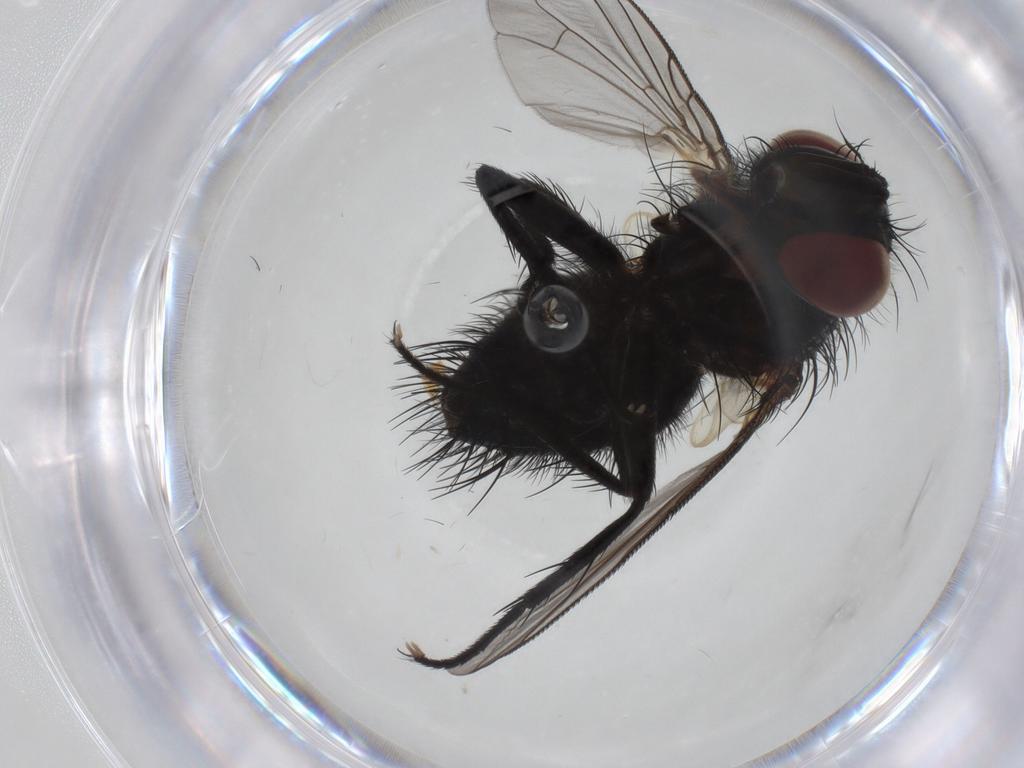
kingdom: Animalia
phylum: Arthropoda
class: Insecta
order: Diptera
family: Tachinidae
